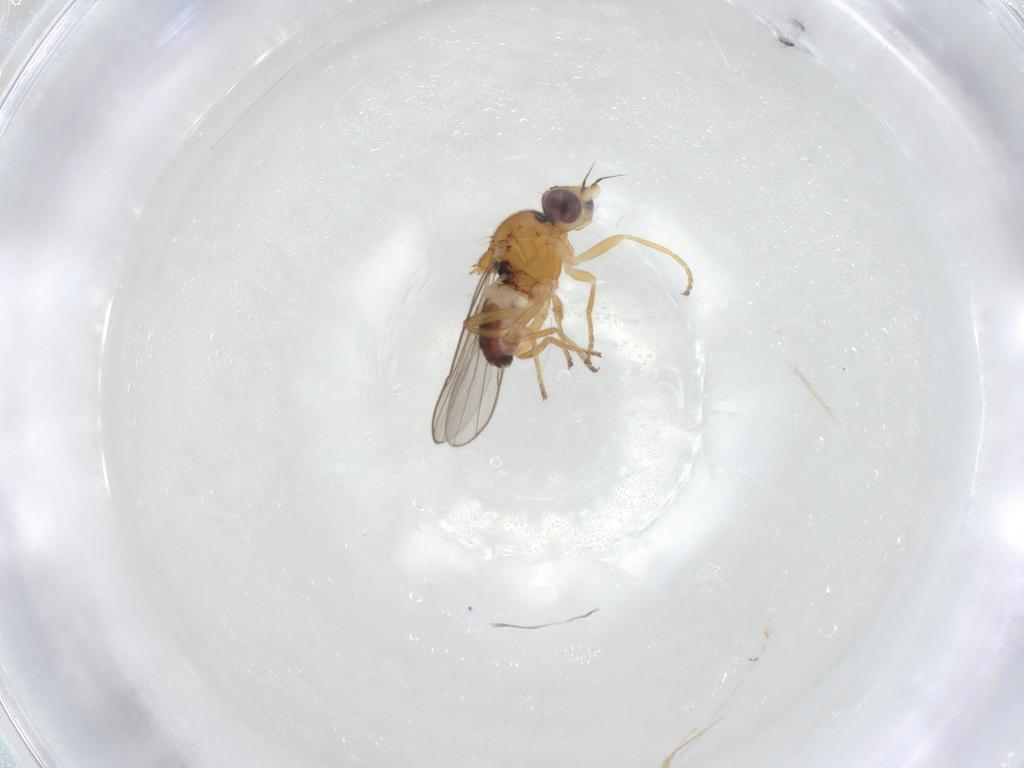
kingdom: Animalia
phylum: Arthropoda
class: Insecta
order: Diptera
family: Chloropidae
